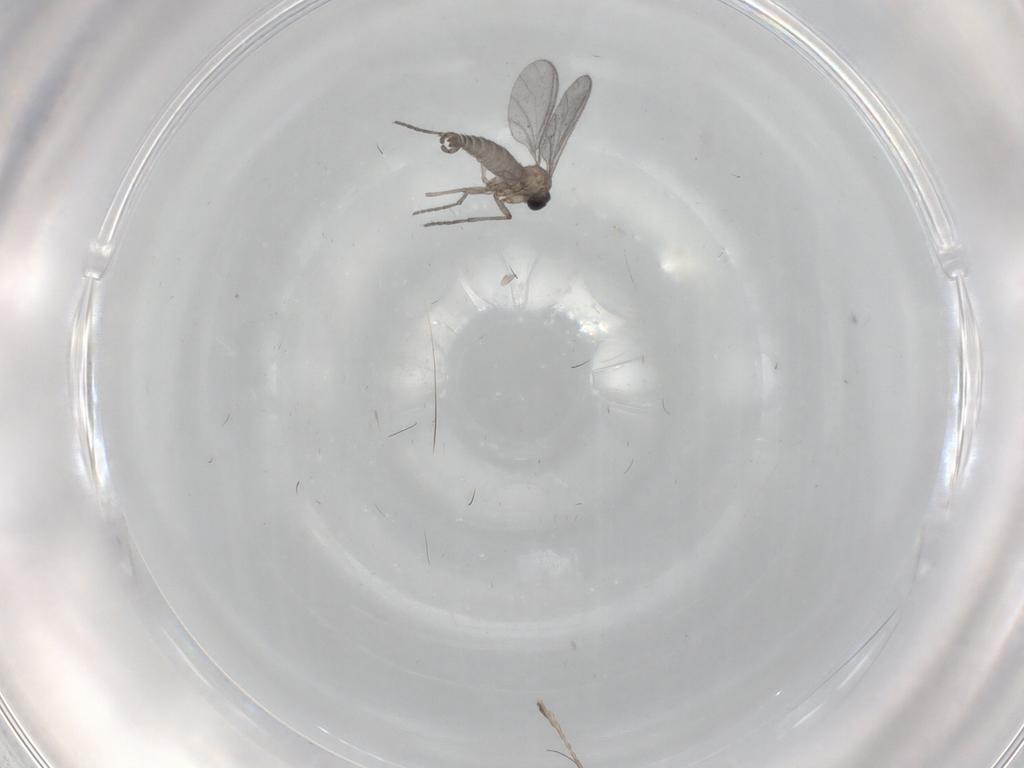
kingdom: Animalia
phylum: Arthropoda
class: Insecta
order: Diptera
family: Sciaridae
